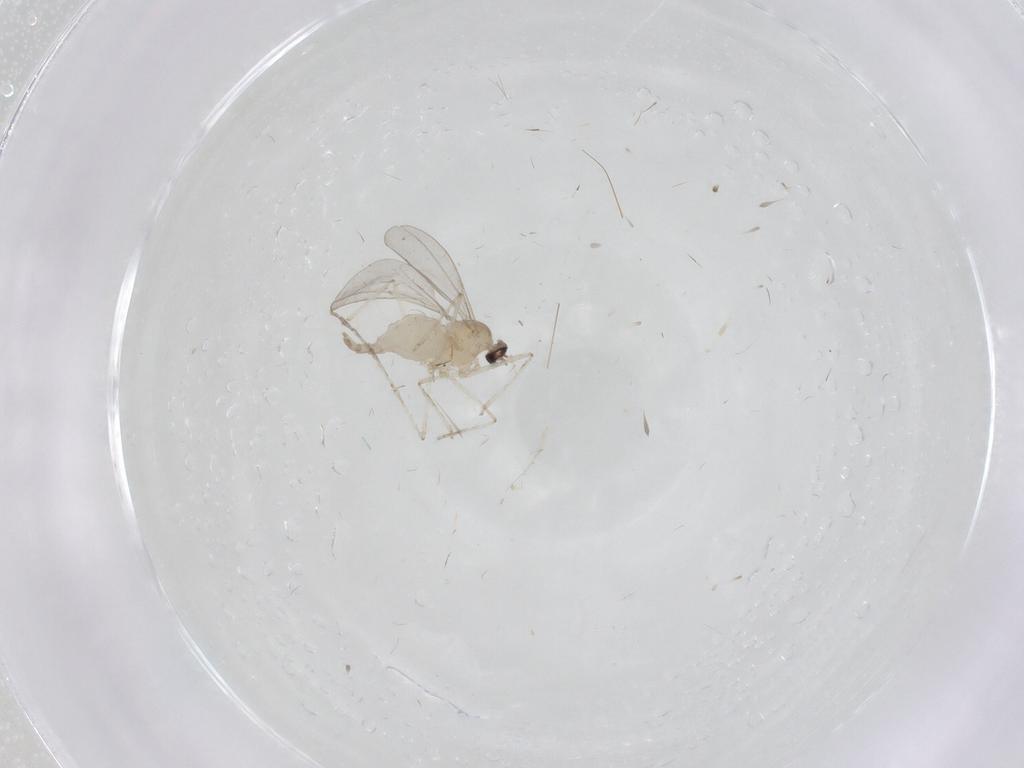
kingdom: Animalia
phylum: Arthropoda
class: Insecta
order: Diptera
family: Cecidomyiidae
